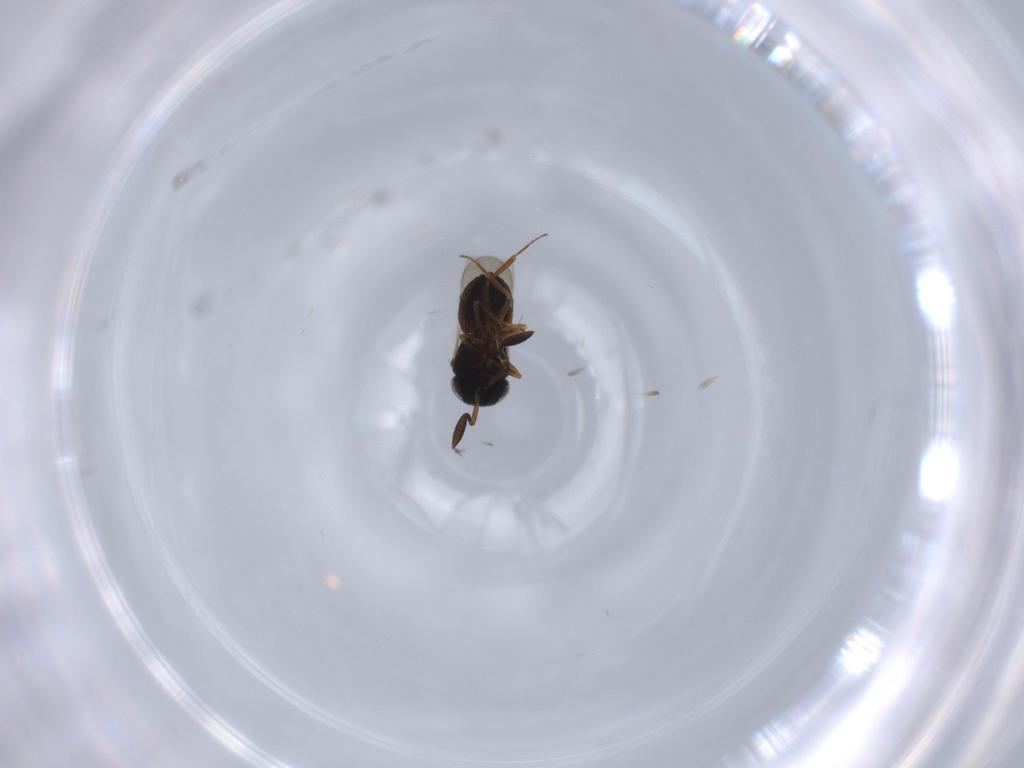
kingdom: Animalia
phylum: Arthropoda
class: Insecta
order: Hymenoptera
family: Scelionidae
